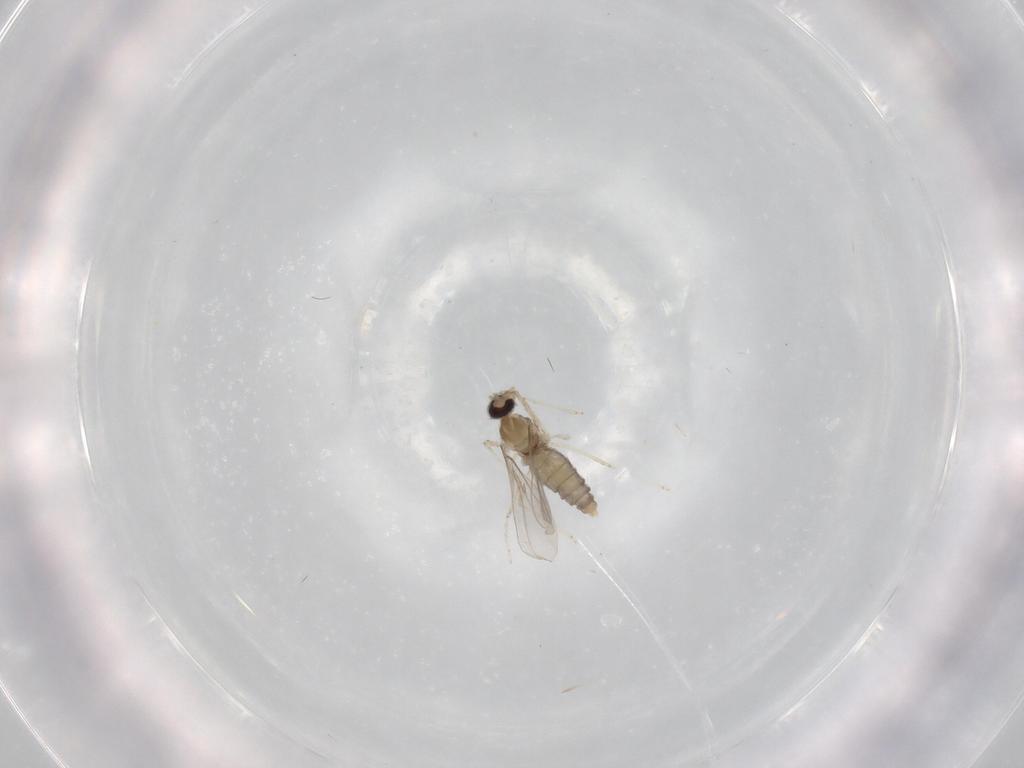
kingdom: Animalia
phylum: Arthropoda
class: Insecta
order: Diptera
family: Cecidomyiidae
